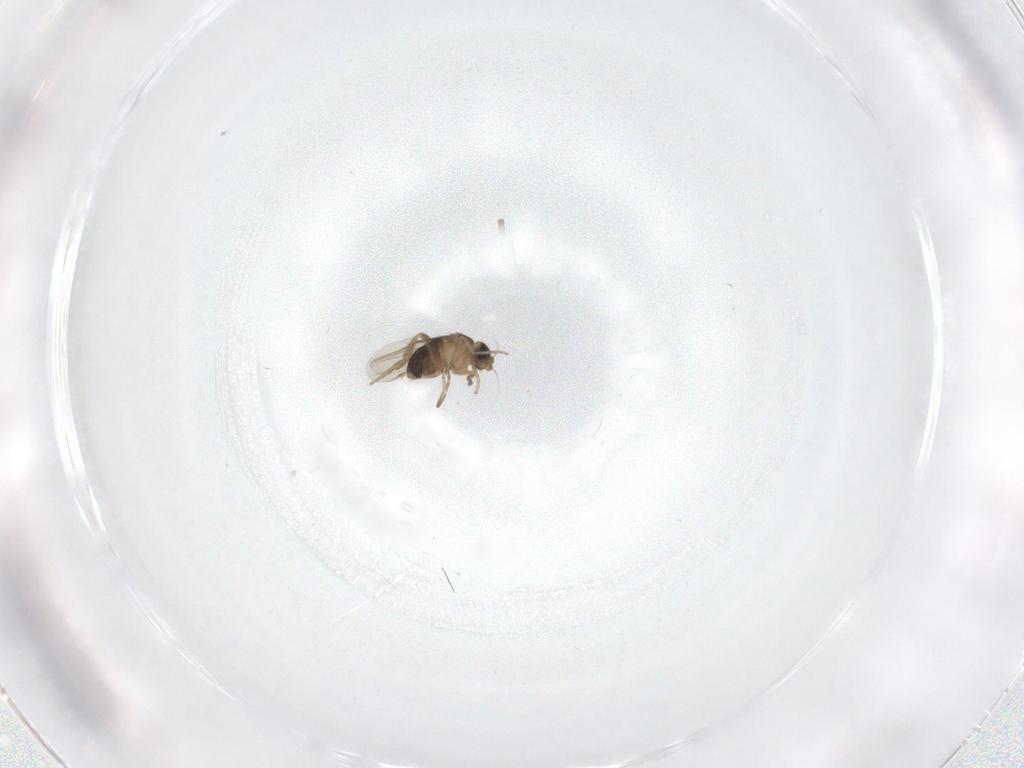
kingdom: Animalia
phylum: Arthropoda
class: Insecta
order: Diptera
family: Phoridae
